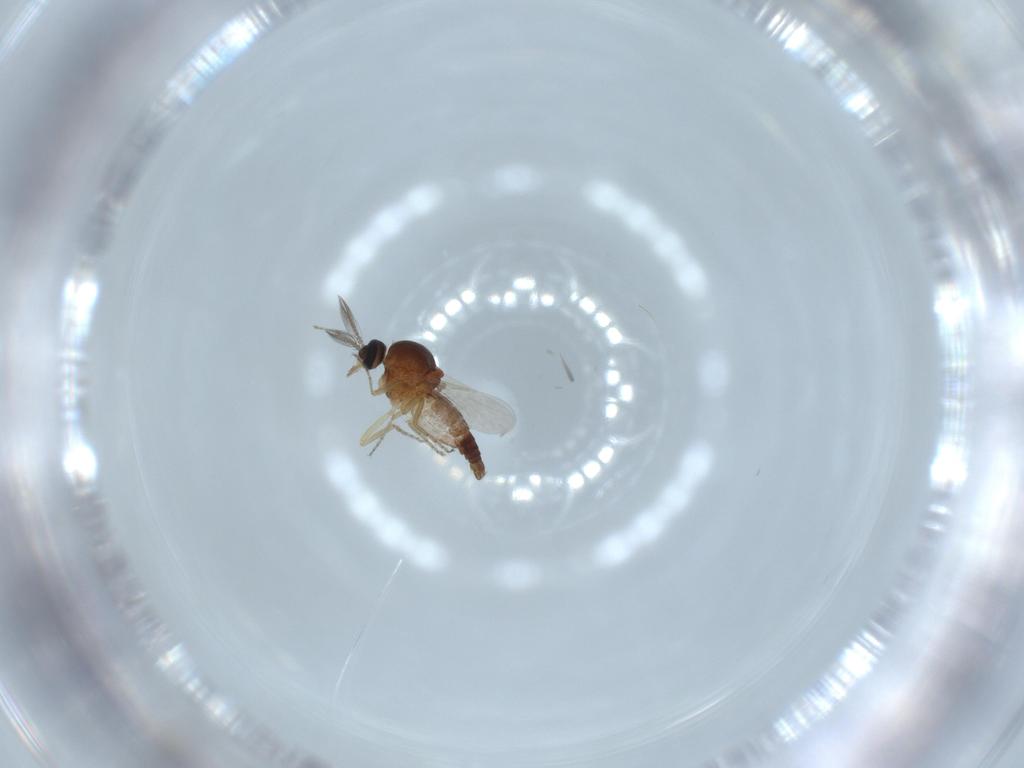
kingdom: Animalia
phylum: Arthropoda
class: Insecta
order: Diptera
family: Ceratopogonidae
